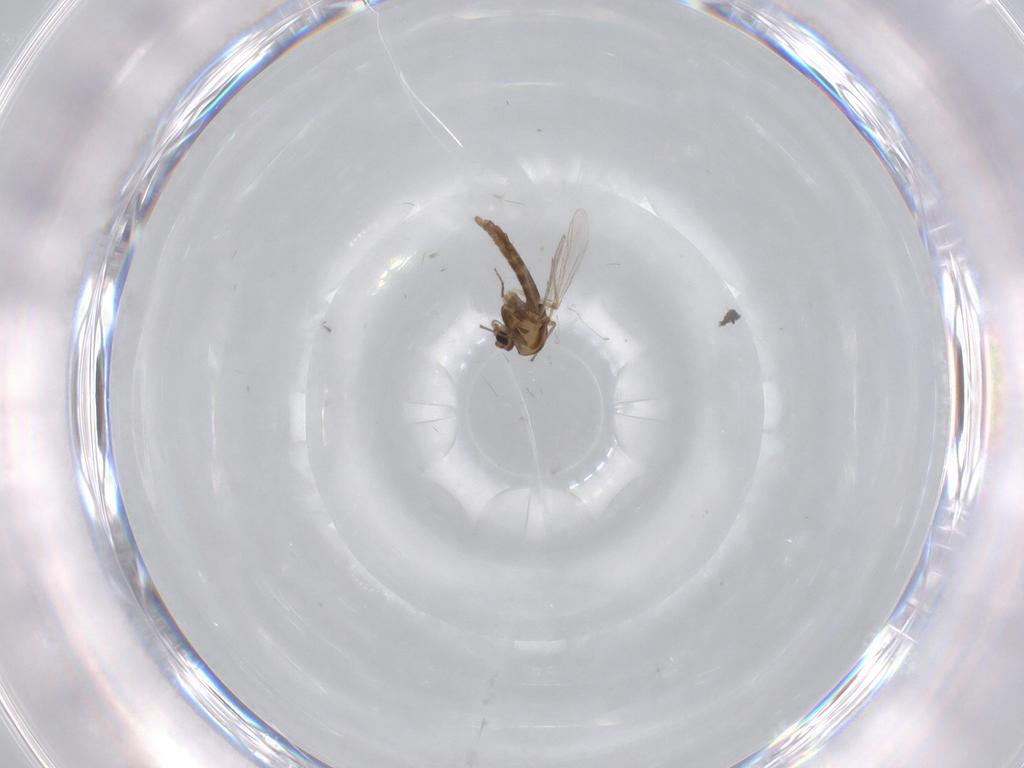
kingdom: Animalia
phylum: Arthropoda
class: Insecta
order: Diptera
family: Chironomidae
